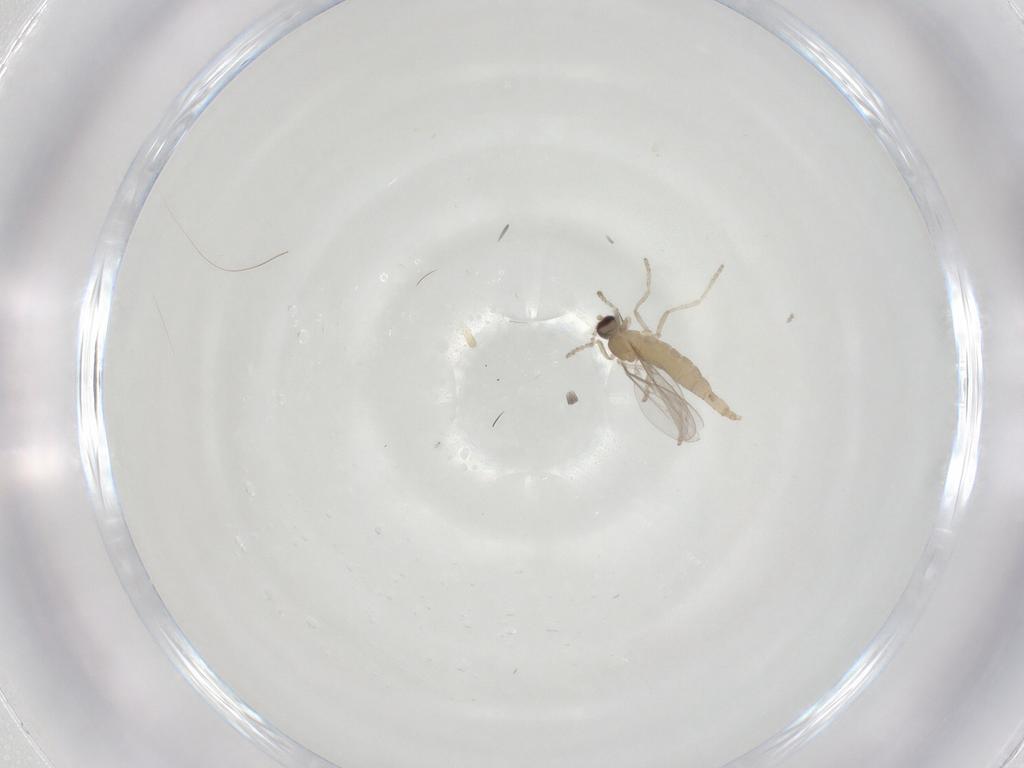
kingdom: Animalia
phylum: Arthropoda
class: Insecta
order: Diptera
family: Cecidomyiidae
